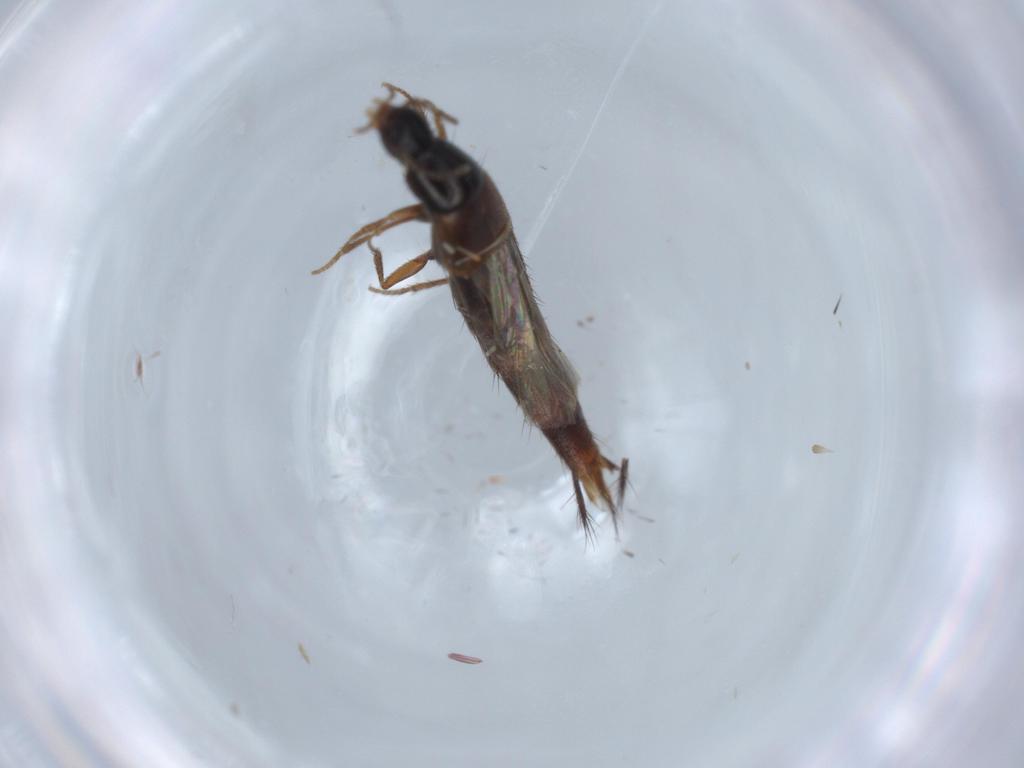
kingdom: Animalia
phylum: Arthropoda
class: Insecta
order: Coleoptera
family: Staphylinidae
